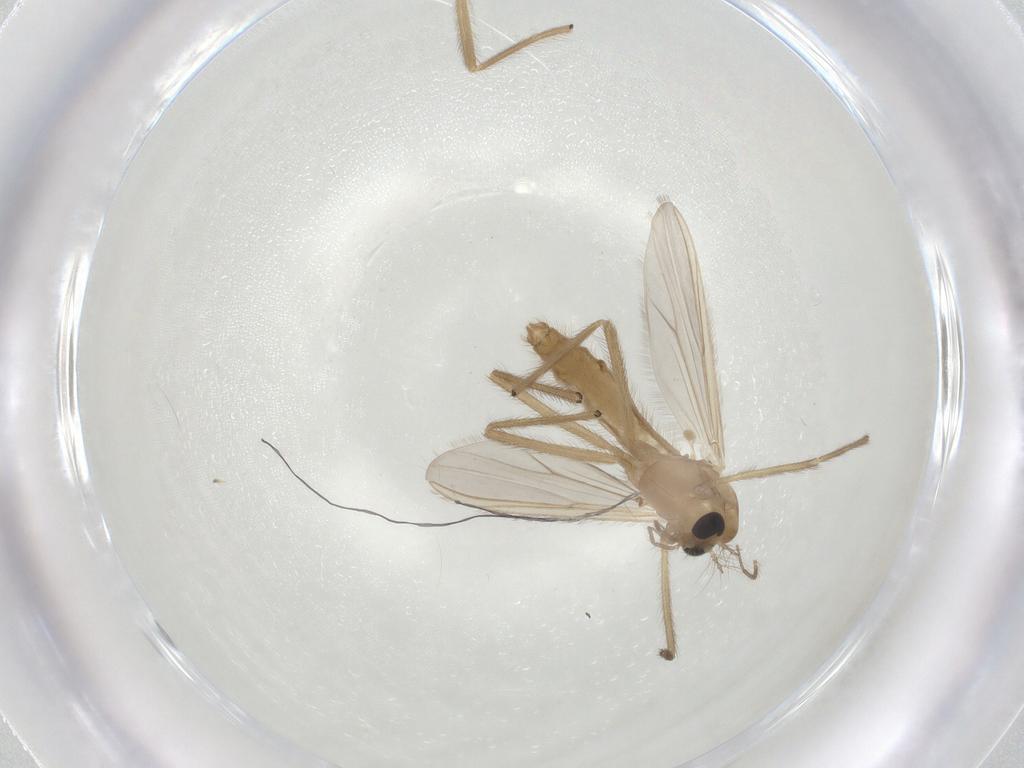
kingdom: Animalia
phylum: Arthropoda
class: Insecta
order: Diptera
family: Chironomidae
